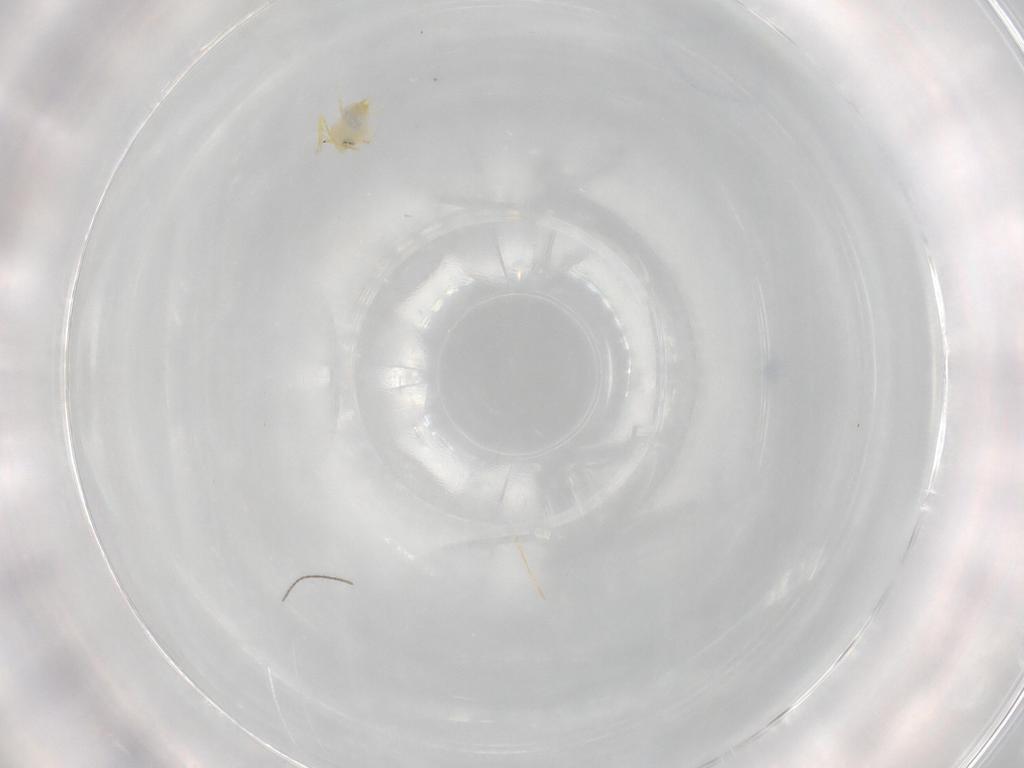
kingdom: Animalia
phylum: Arthropoda
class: Insecta
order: Hemiptera
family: Aleyrodidae
